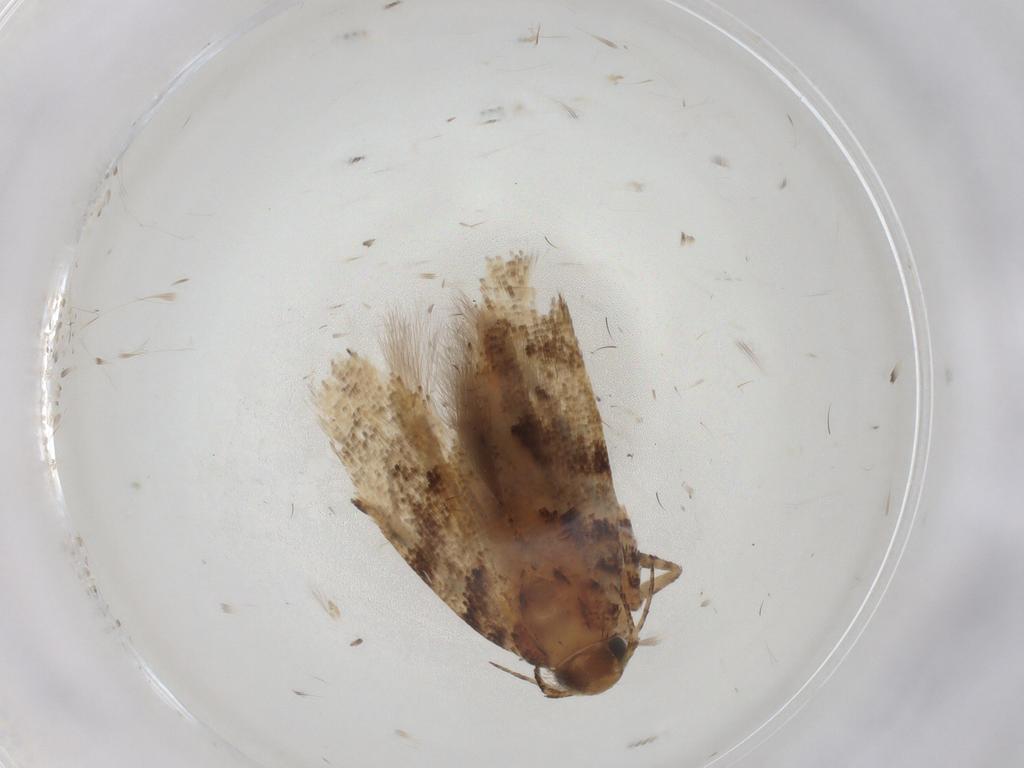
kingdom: Animalia
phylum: Arthropoda
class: Insecta
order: Lepidoptera
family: Gelechiidae
